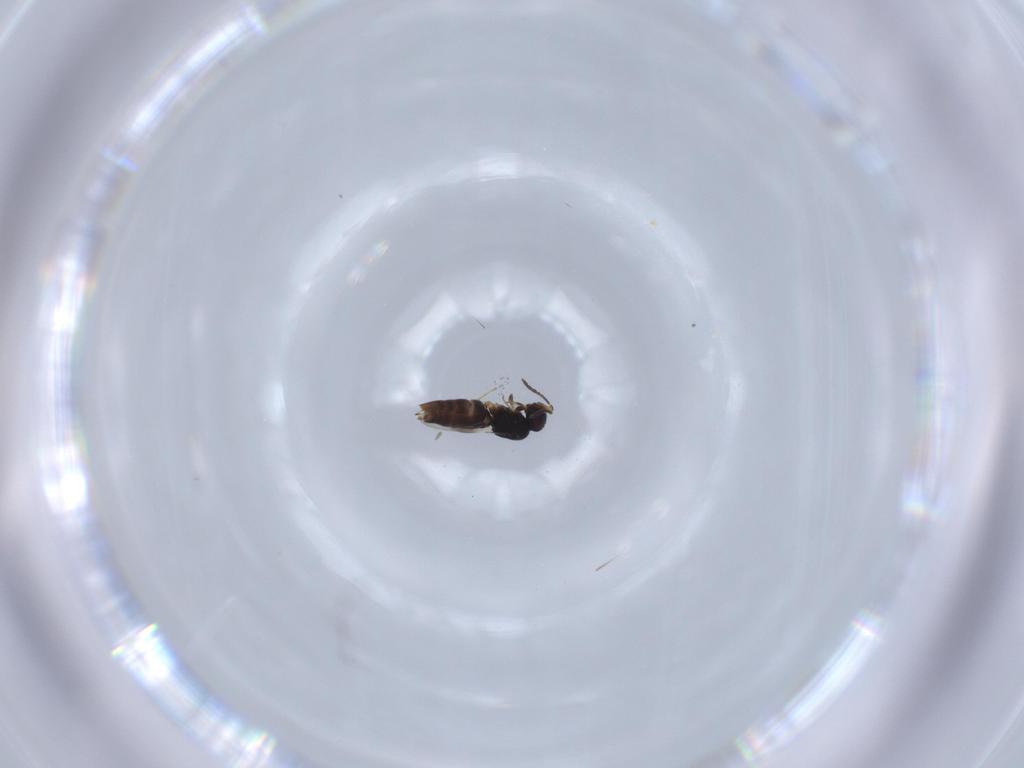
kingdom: Animalia
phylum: Arthropoda
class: Insecta
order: Hymenoptera
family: Ceraphronidae
